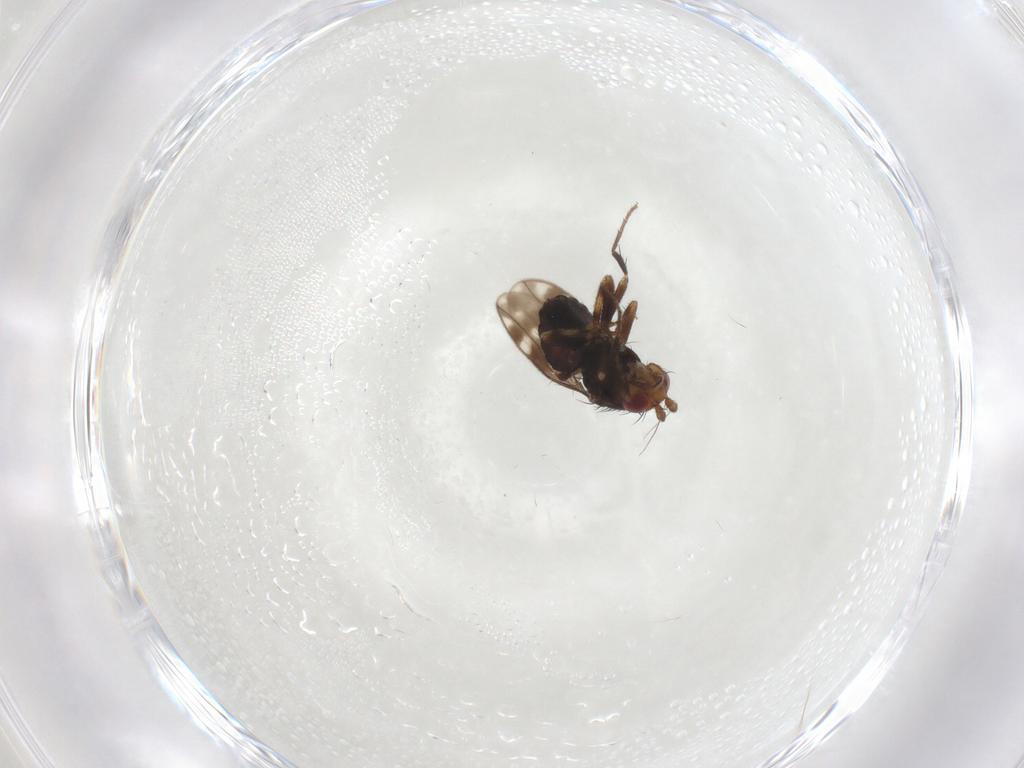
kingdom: Animalia
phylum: Arthropoda
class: Insecta
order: Diptera
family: Sphaeroceridae
